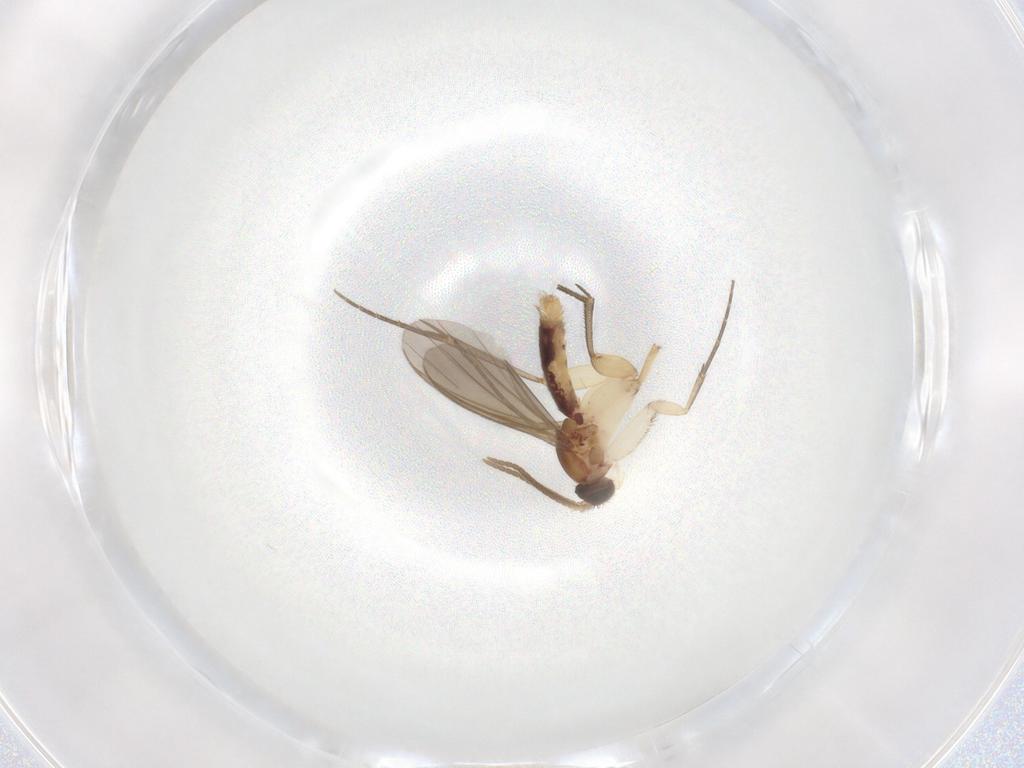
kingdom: Animalia
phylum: Arthropoda
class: Insecta
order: Diptera
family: Mycetophilidae
